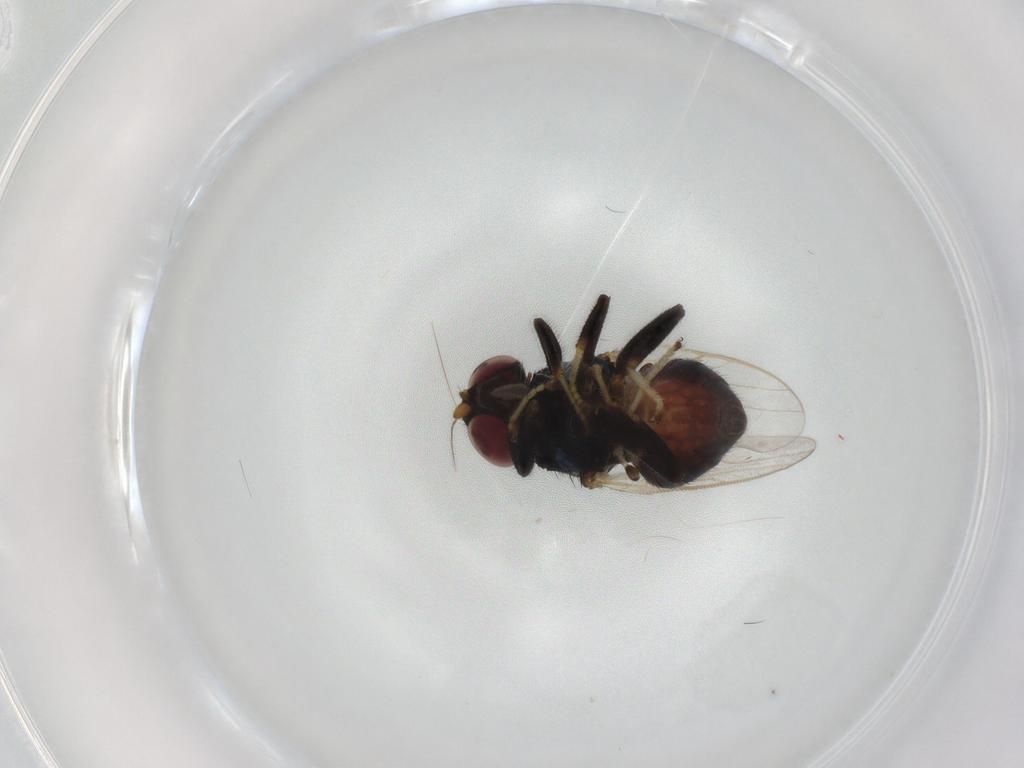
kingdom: Animalia
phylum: Arthropoda
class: Insecta
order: Diptera
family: Chloropidae
